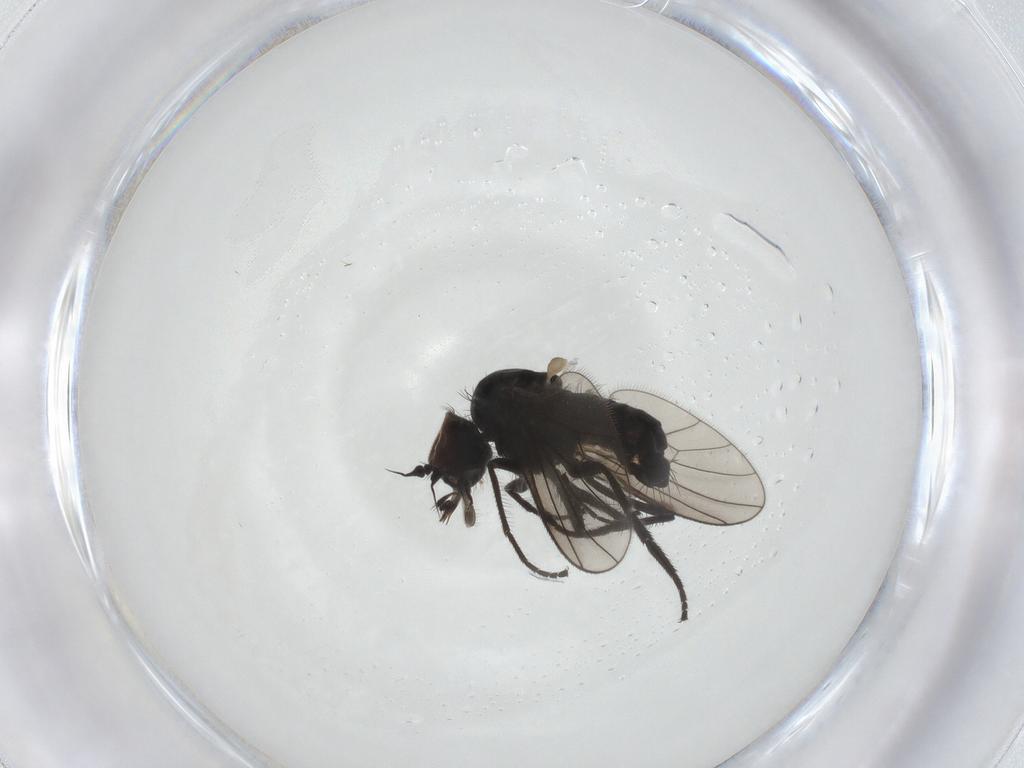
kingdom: Animalia
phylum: Arthropoda
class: Insecta
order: Diptera
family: Dolichopodidae
